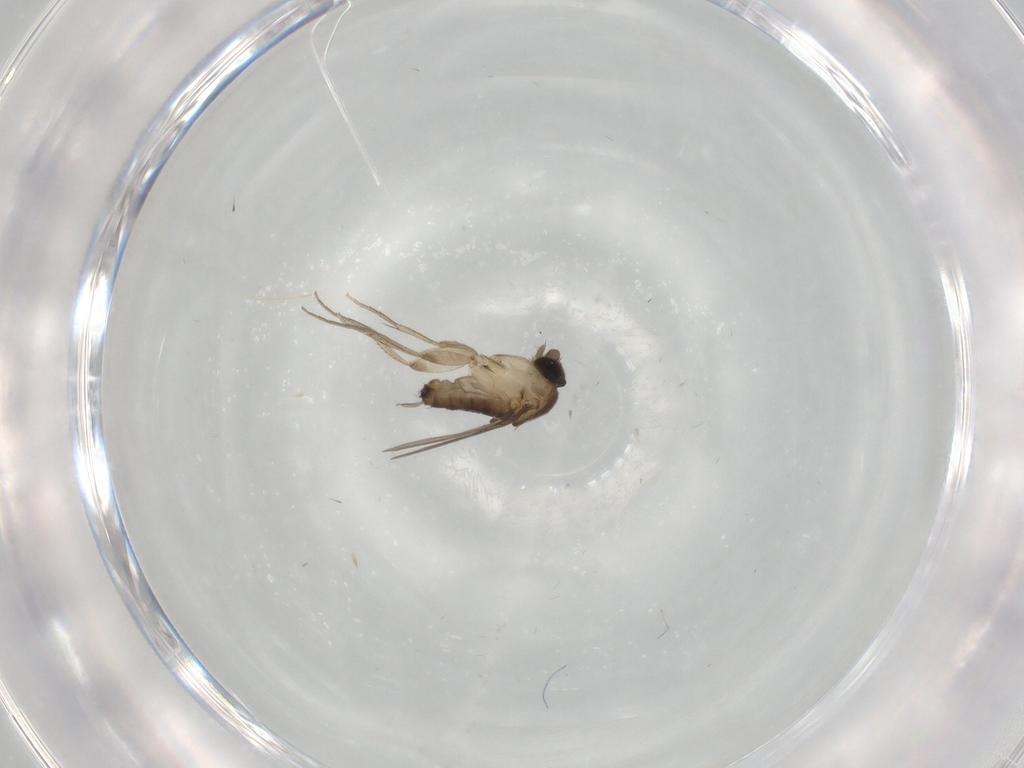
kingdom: Animalia
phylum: Arthropoda
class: Insecta
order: Diptera
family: Phoridae
